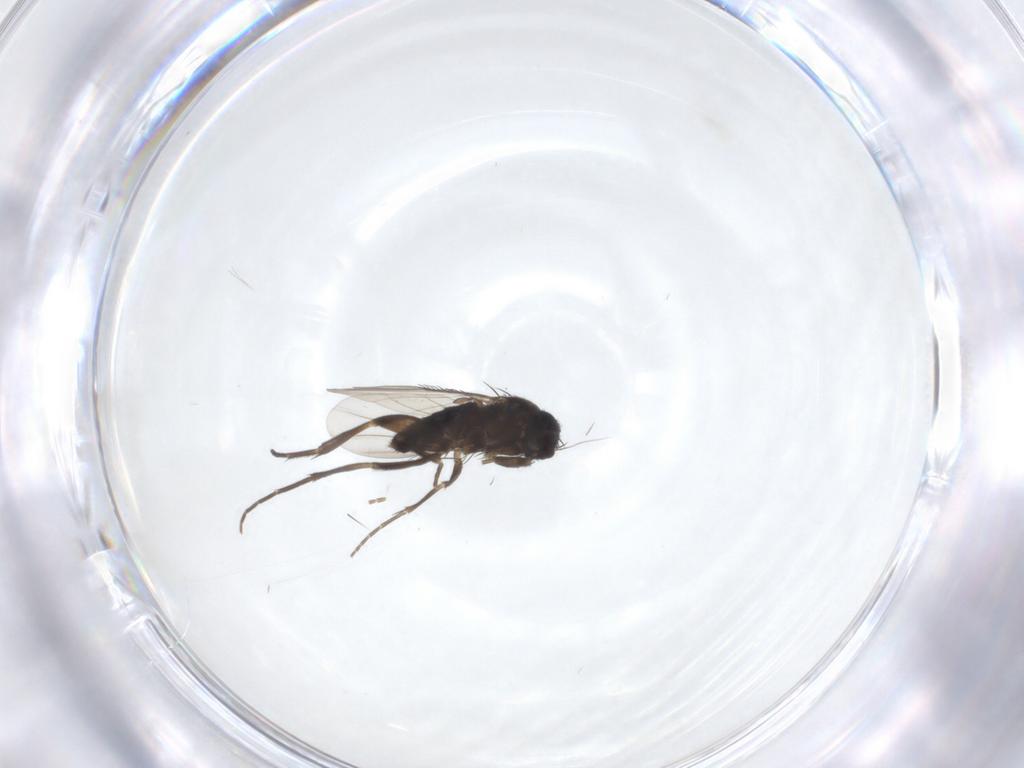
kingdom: Animalia
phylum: Arthropoda
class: Insecta
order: Diptera
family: Phoridae
